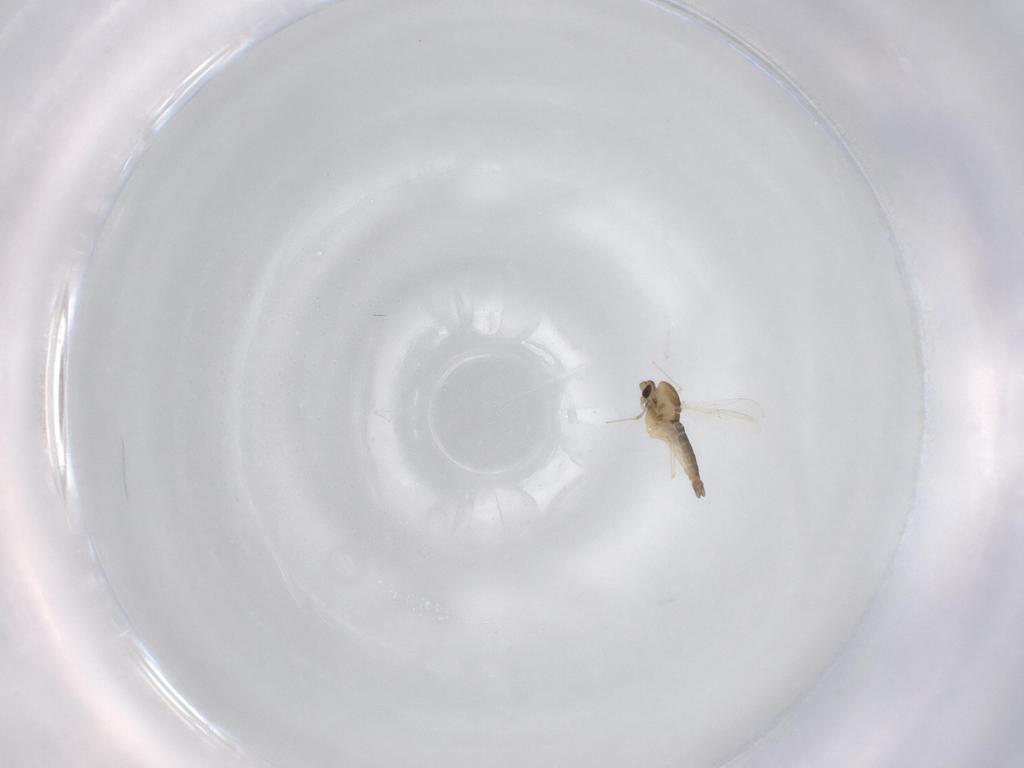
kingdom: Animalia
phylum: Arthropoda
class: Insecta
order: Diptera
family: Chironomidae
